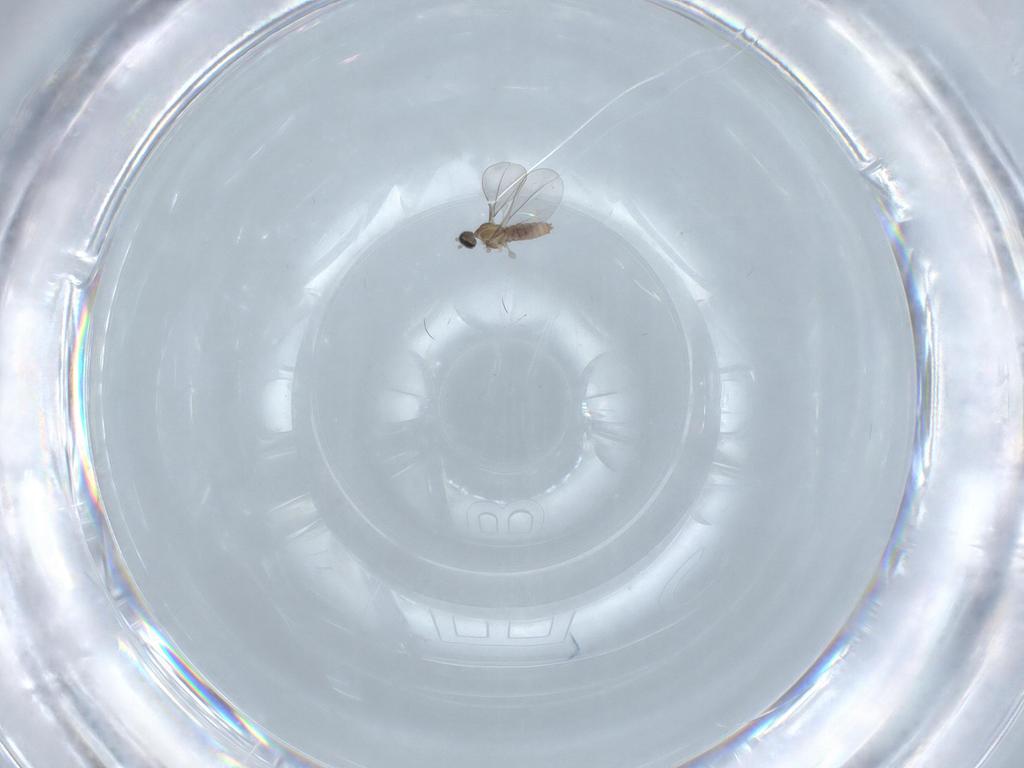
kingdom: Animalia
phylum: Arthropoda
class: Insecta
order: Diptera
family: Cecidomyiidae
